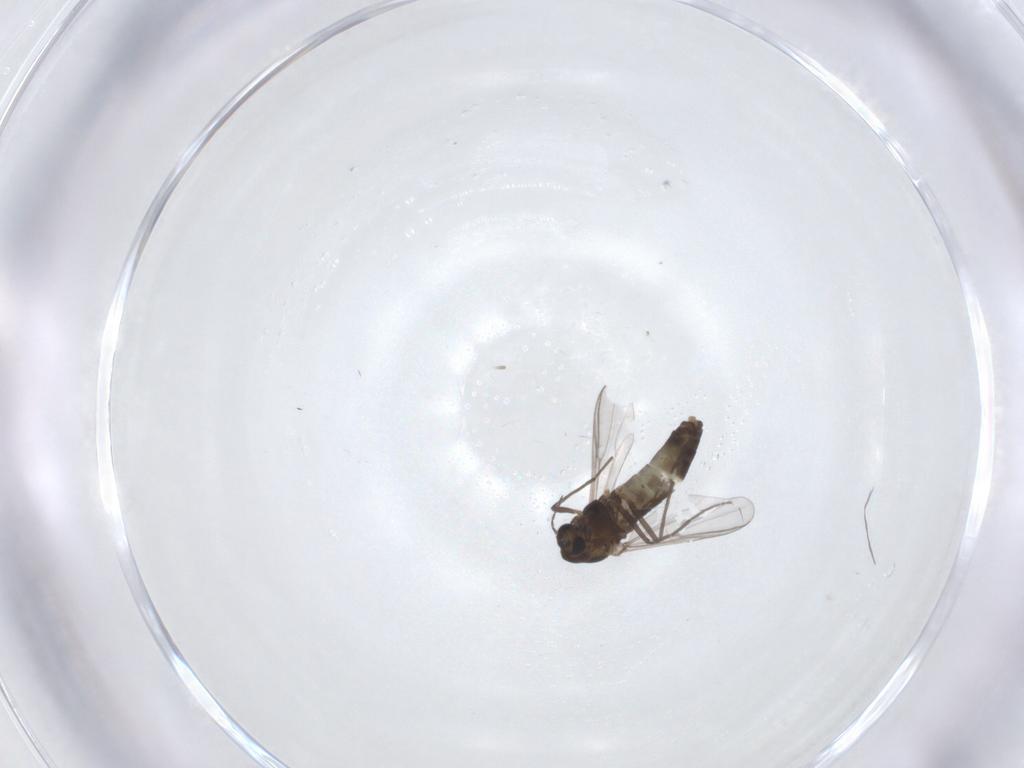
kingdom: Animalia
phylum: Arthropoda
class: Insecta
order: Diptera
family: Chironomidae
